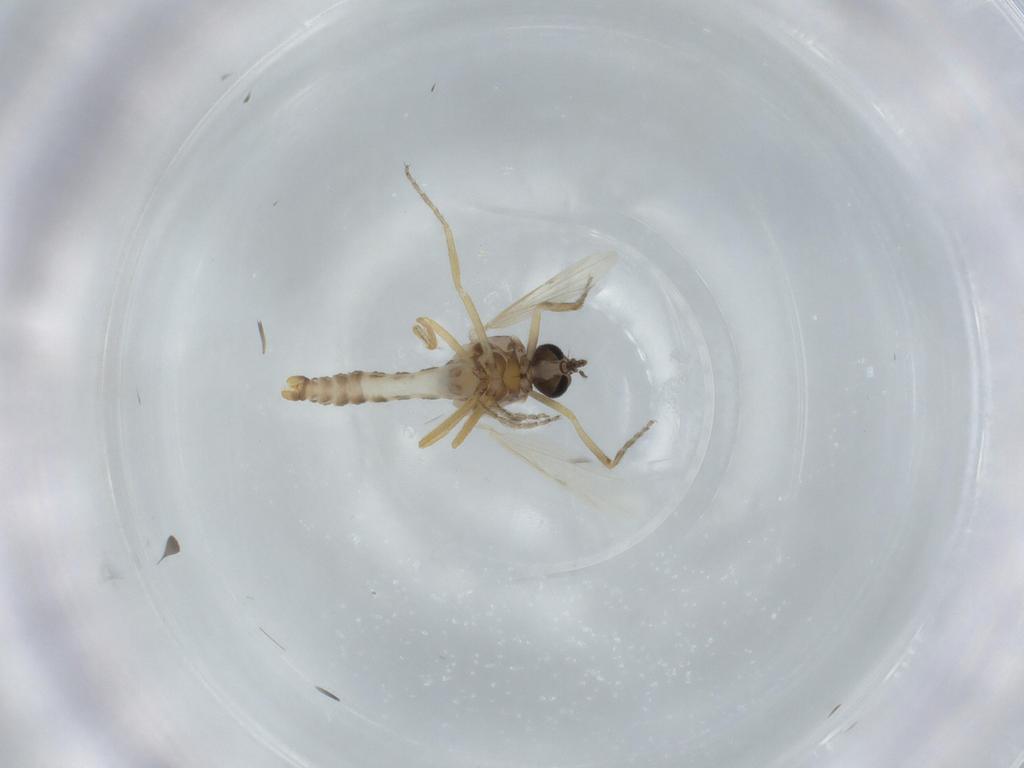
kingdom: Animalia
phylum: Arthropoda
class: Insecta
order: Diptera
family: Ceratopogonidae
